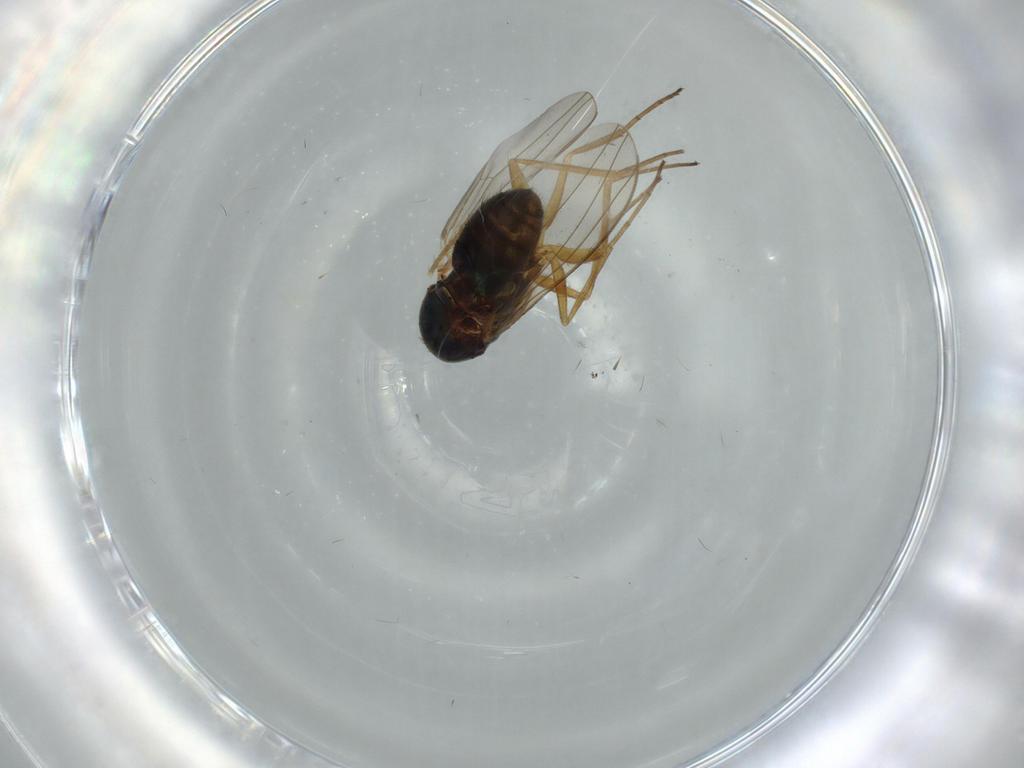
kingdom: Animalia
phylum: Arthropoda
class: Insecta
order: Diptera
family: Dolichopodidae
